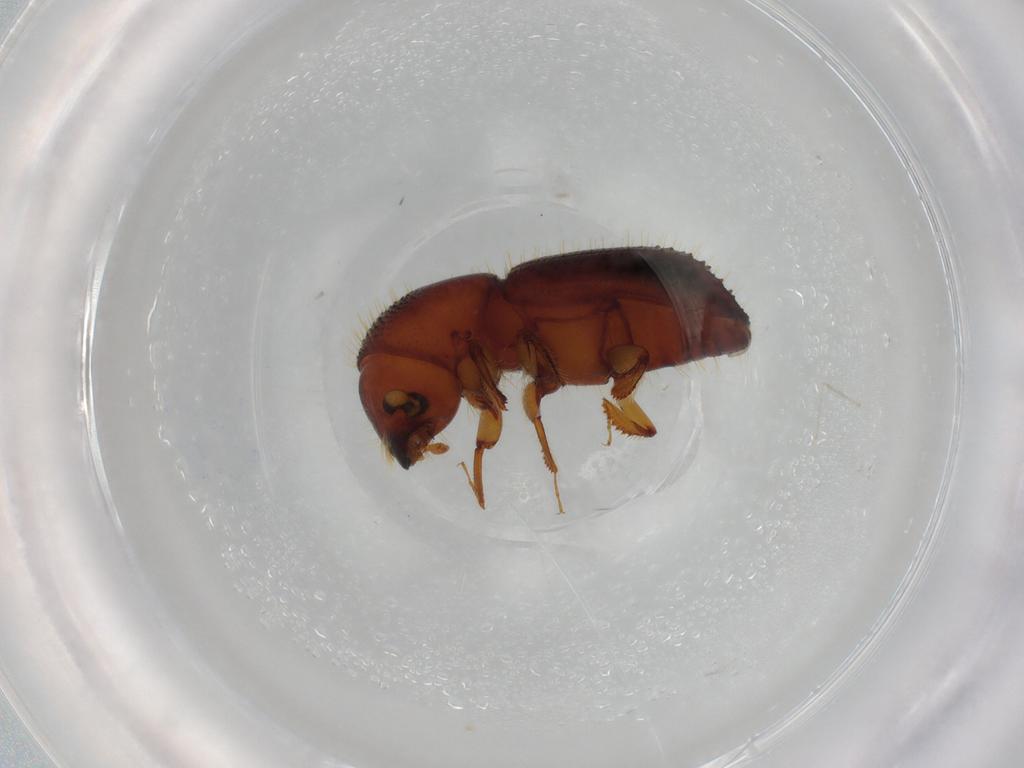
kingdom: Animalia
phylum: Arthropoda
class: Insecta
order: Coleoptera
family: Curculionidae
